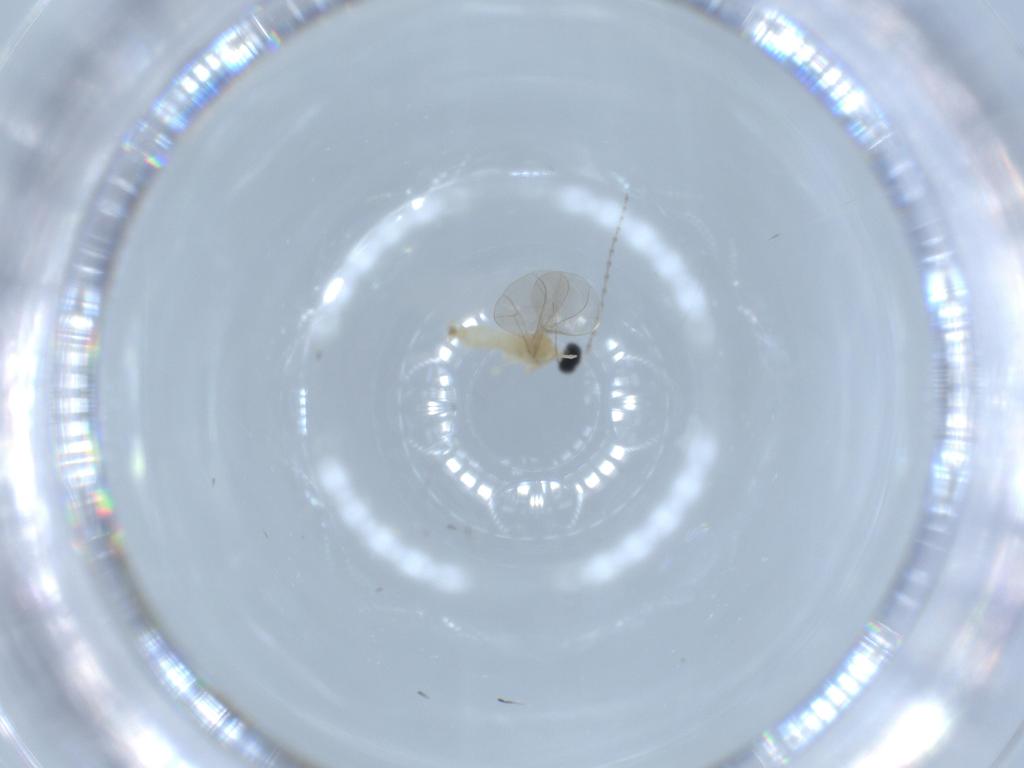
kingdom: Animalia
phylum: Arthropoda
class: Insecta
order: Diptera
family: Cecidomyiidae
